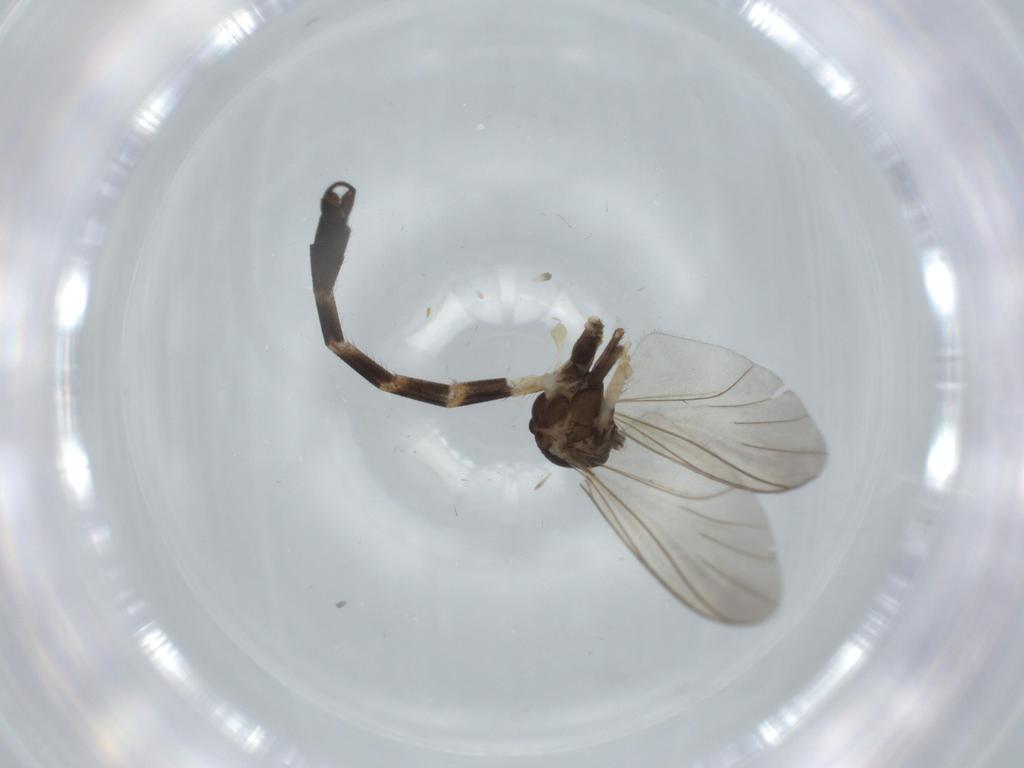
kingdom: Animalia
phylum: Arthropoda
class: Insecta
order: Diptera
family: Keroplatidae
